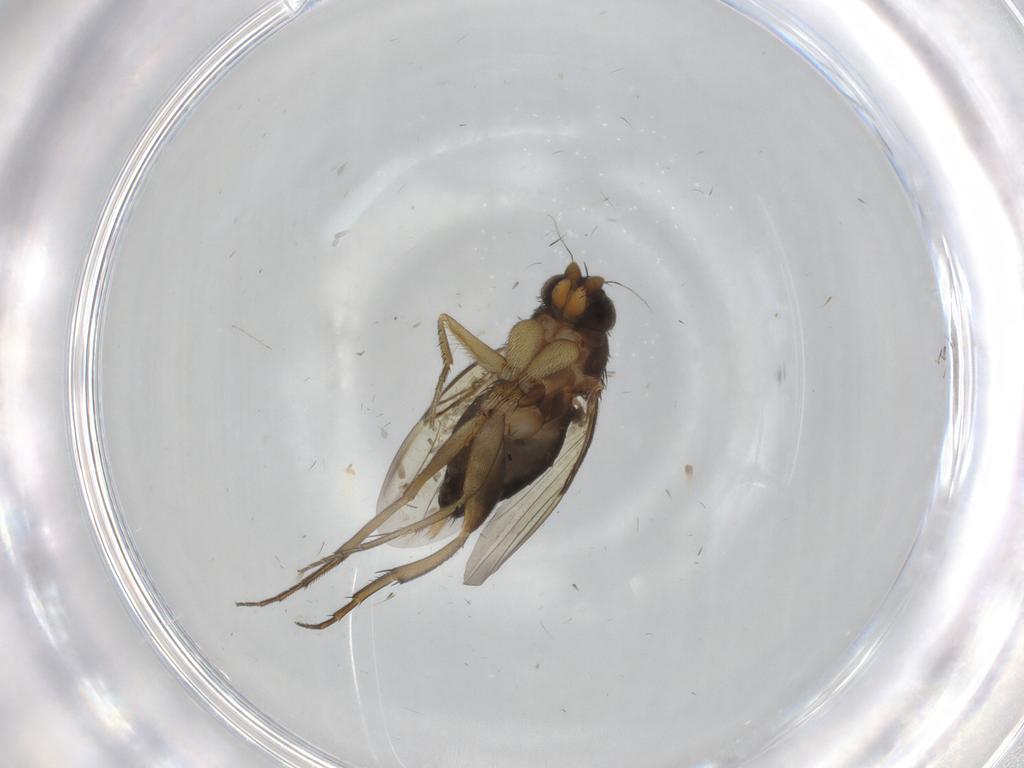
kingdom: Animalia
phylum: Arthropoda
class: Insecta
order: Diptera
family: Phoridae
